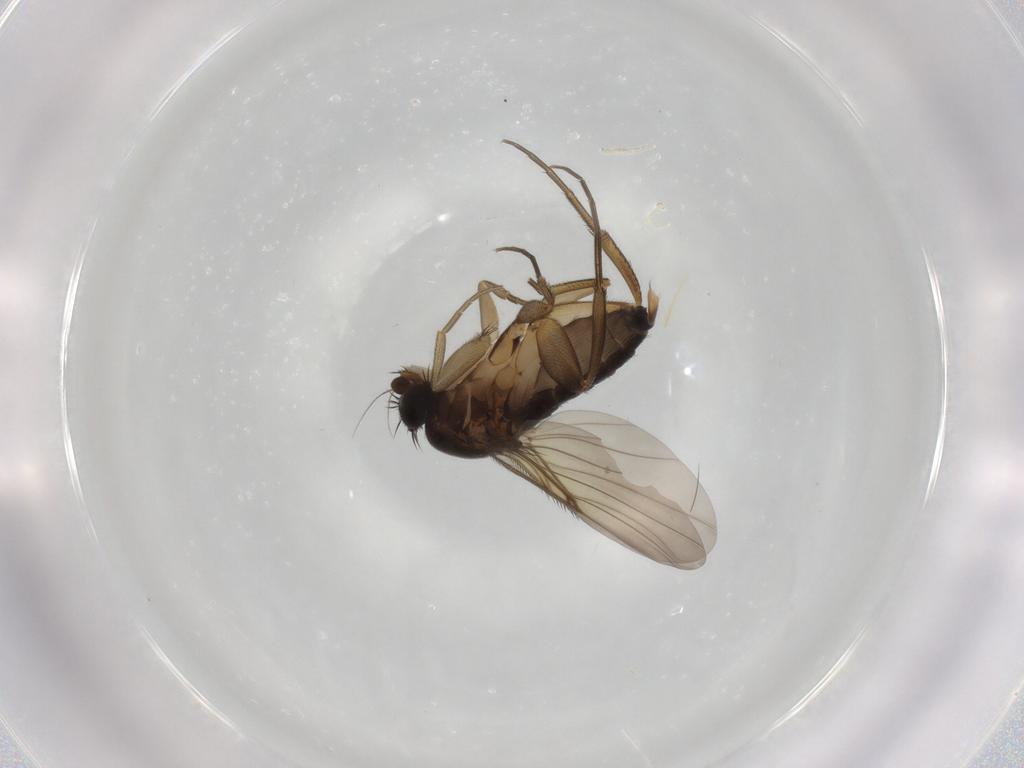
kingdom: Animalia
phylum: Arthropoda
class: Insecta
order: Diptera
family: Phoridae
